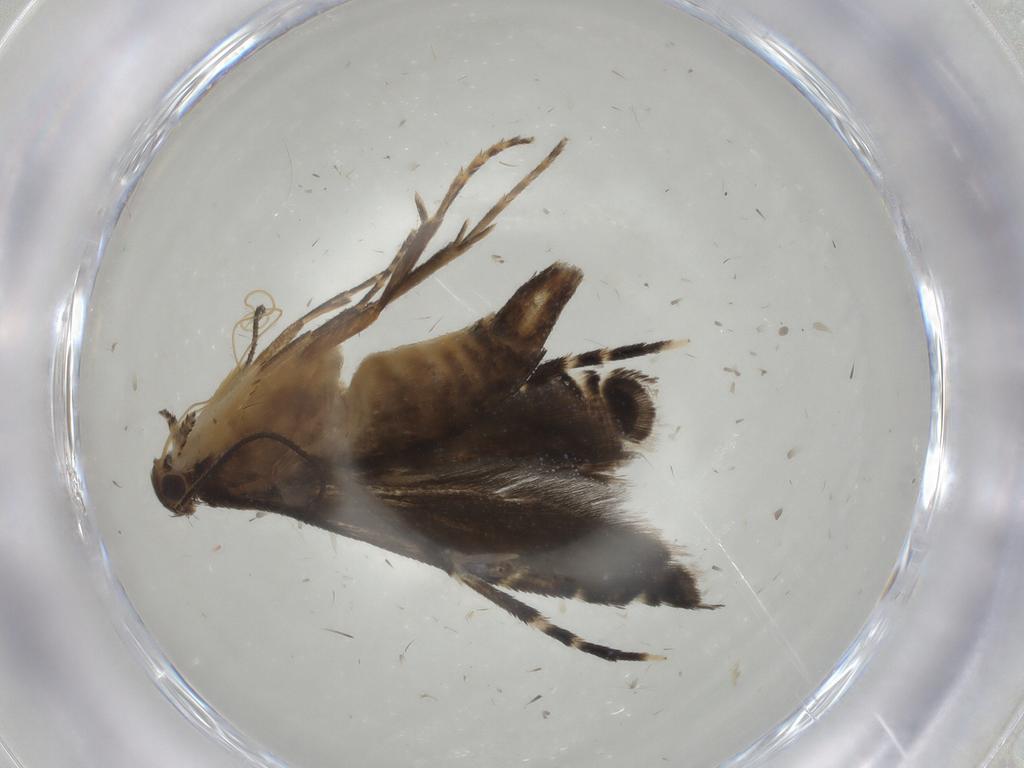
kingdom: Animalia
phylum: Arthropoda
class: Insecta
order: Lepidoptera
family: Glyphipterigidae
